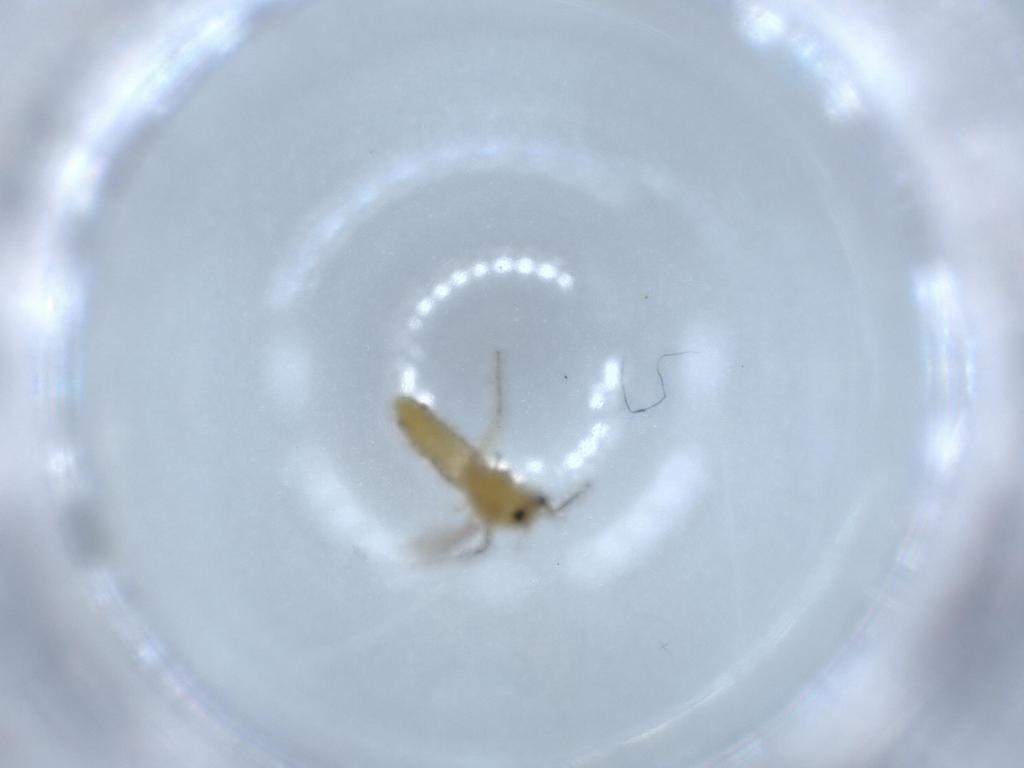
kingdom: Animalia
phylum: Arthropoda
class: Insecta
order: Diptera
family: Chironomidae
